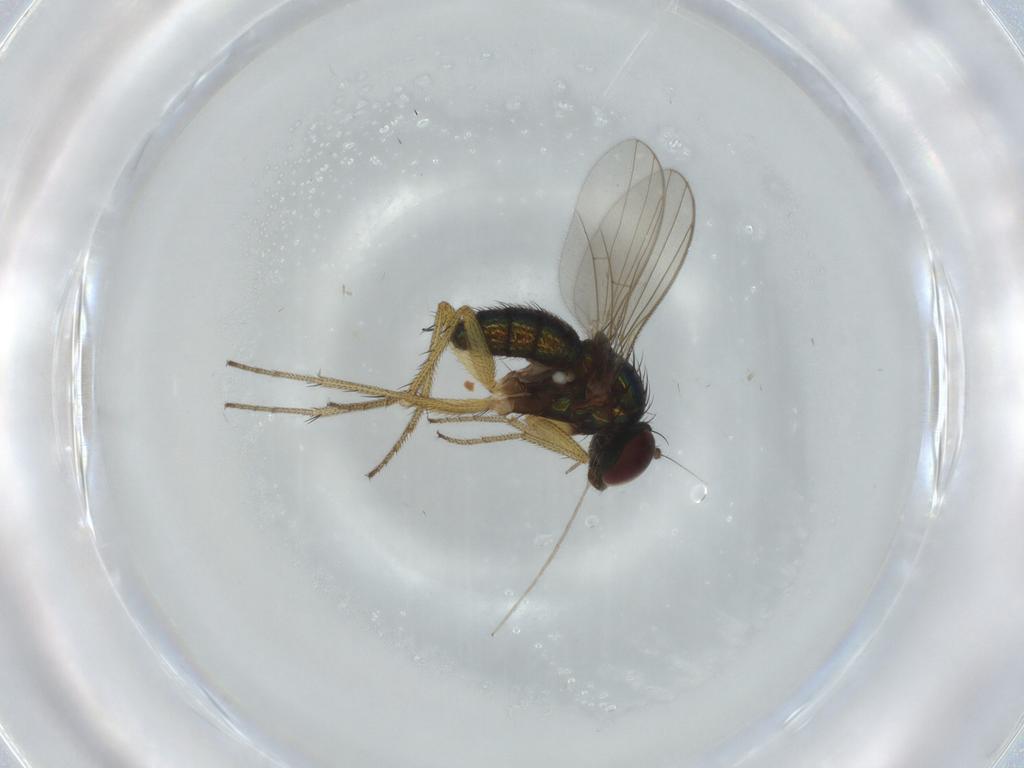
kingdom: Animalia
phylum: Arthropoda
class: Insecta
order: Diptera
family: Dolichopodidae
